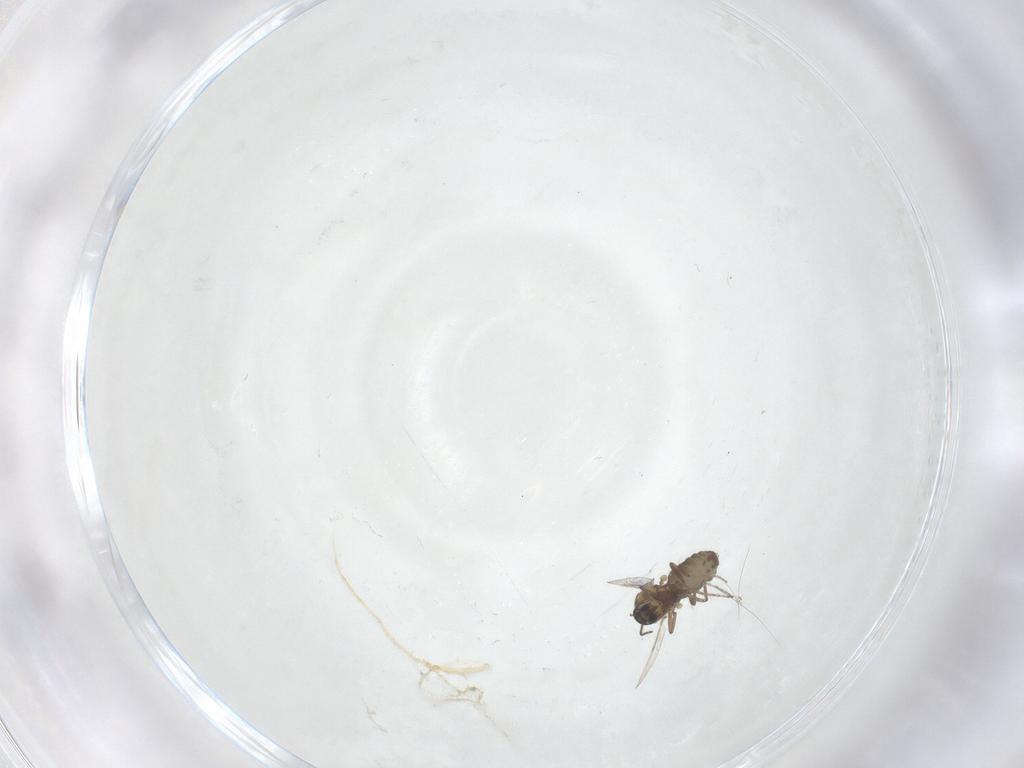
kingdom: Animalia
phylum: Arthropoda
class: Insecta
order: Diptera
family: Ceratopogonidae
